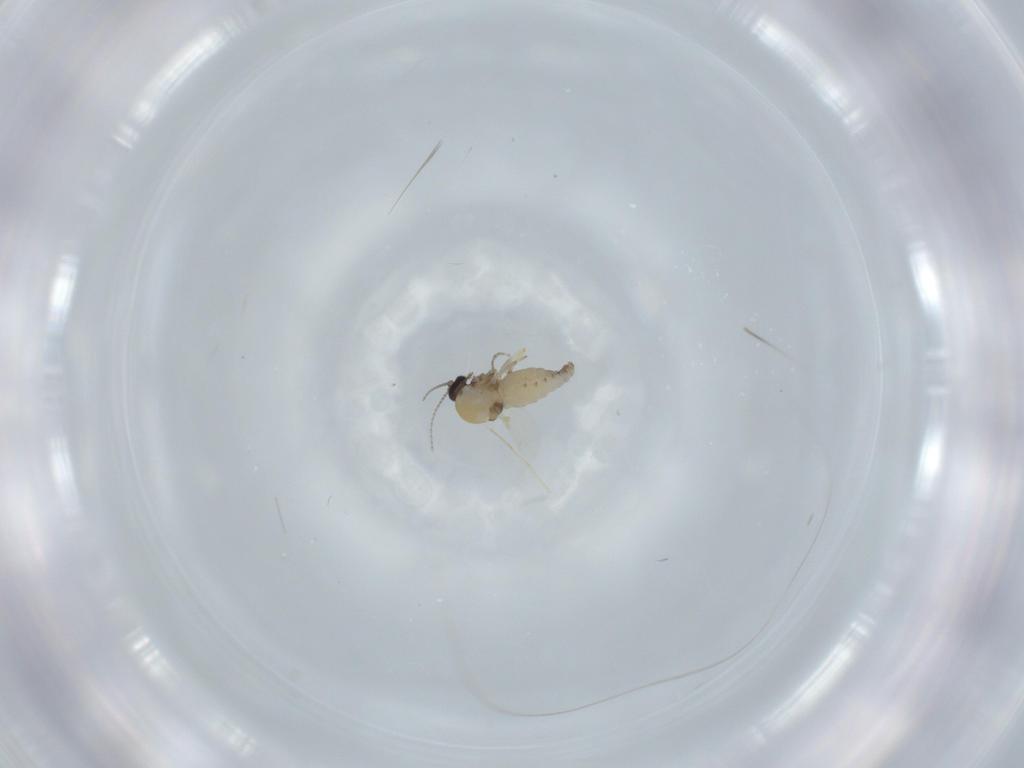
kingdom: Animalia
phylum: Arthropoda
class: Insecta
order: Diptera
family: Ceratopogonidae
